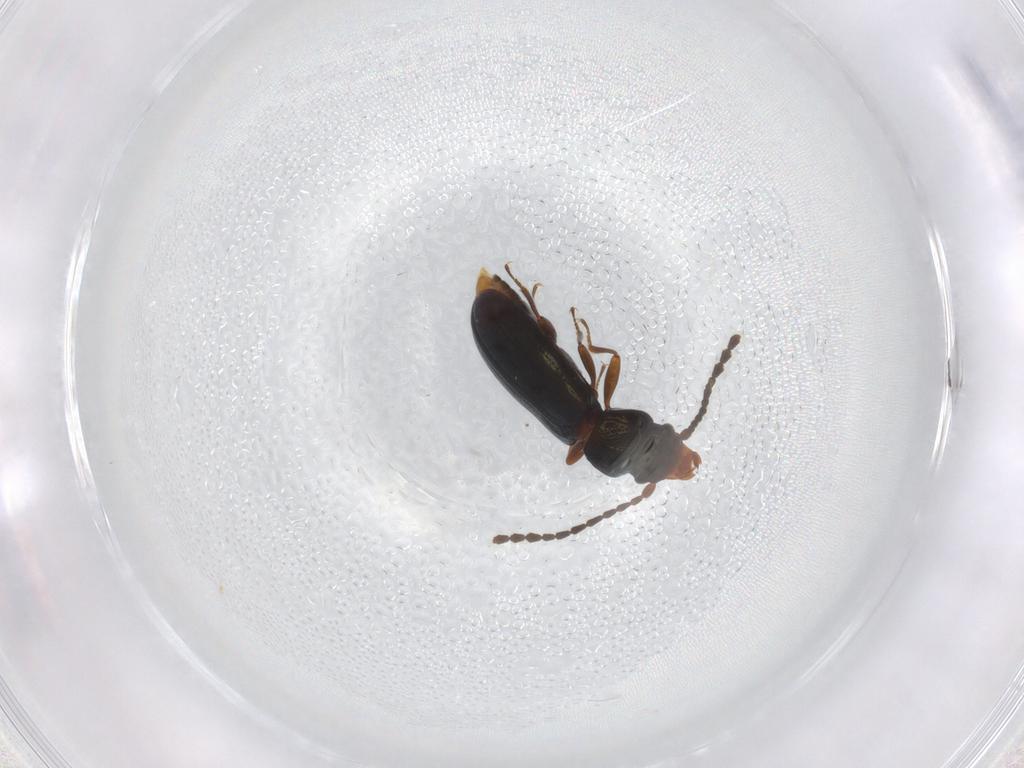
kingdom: Animalia
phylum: Arthropoda
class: Insecta
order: Coleoptera
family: Laemophloeidae
